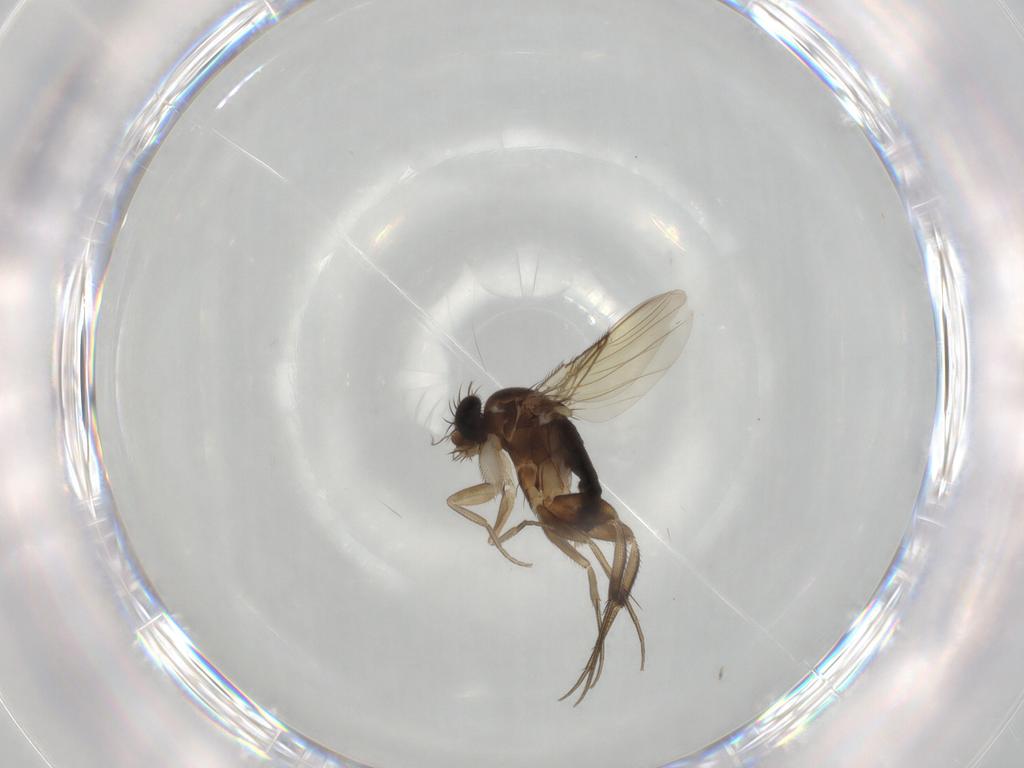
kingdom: Animalia
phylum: Arthropoda
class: Insecta
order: Diptera
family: Phoridae
